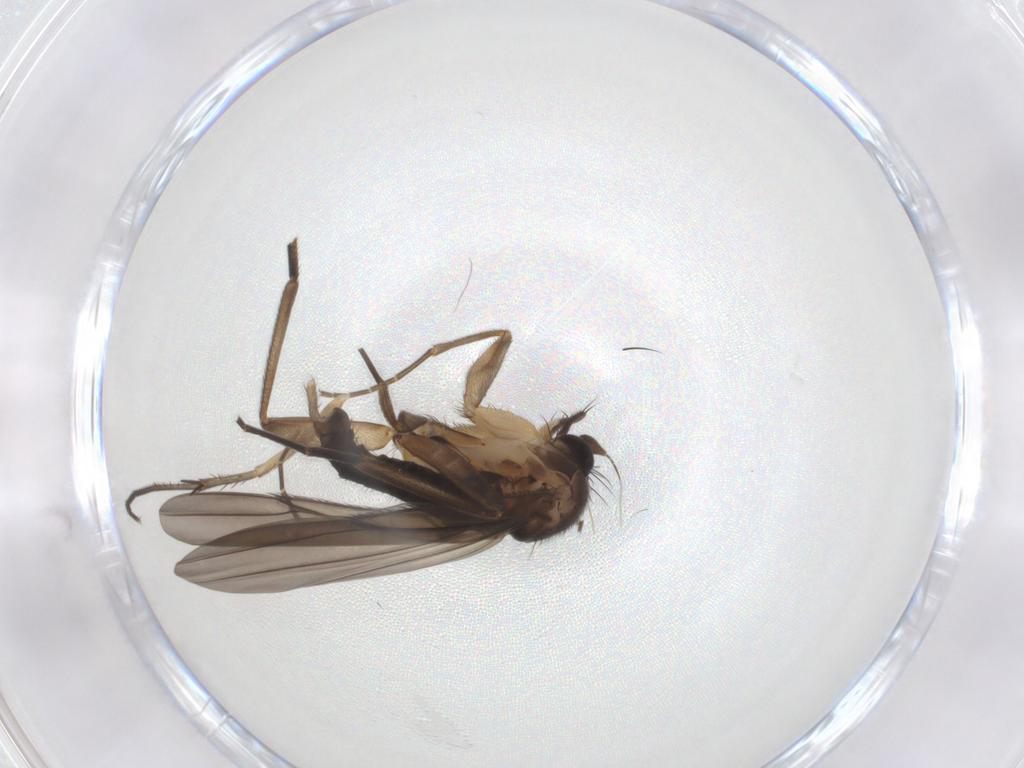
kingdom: Animalia
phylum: Arthropoda
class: Insecta
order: Diptera
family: Phoridae
